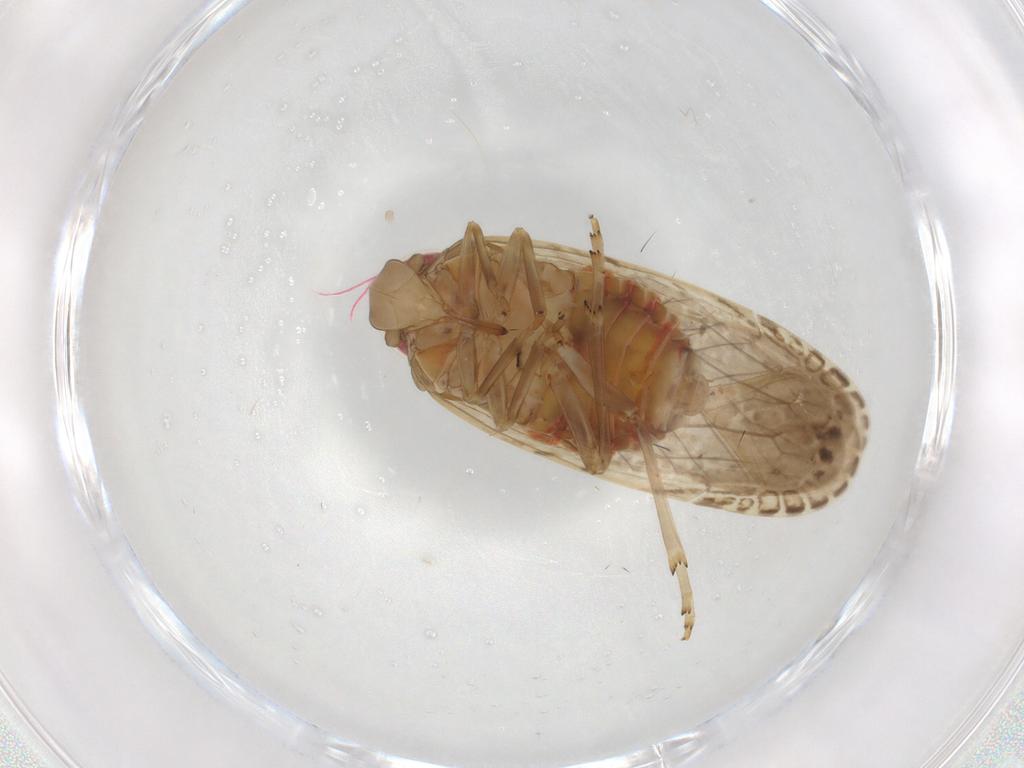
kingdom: Animalia
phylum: Arthropoda
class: Insecta
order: Hemiptera
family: Rhyparochromidae
